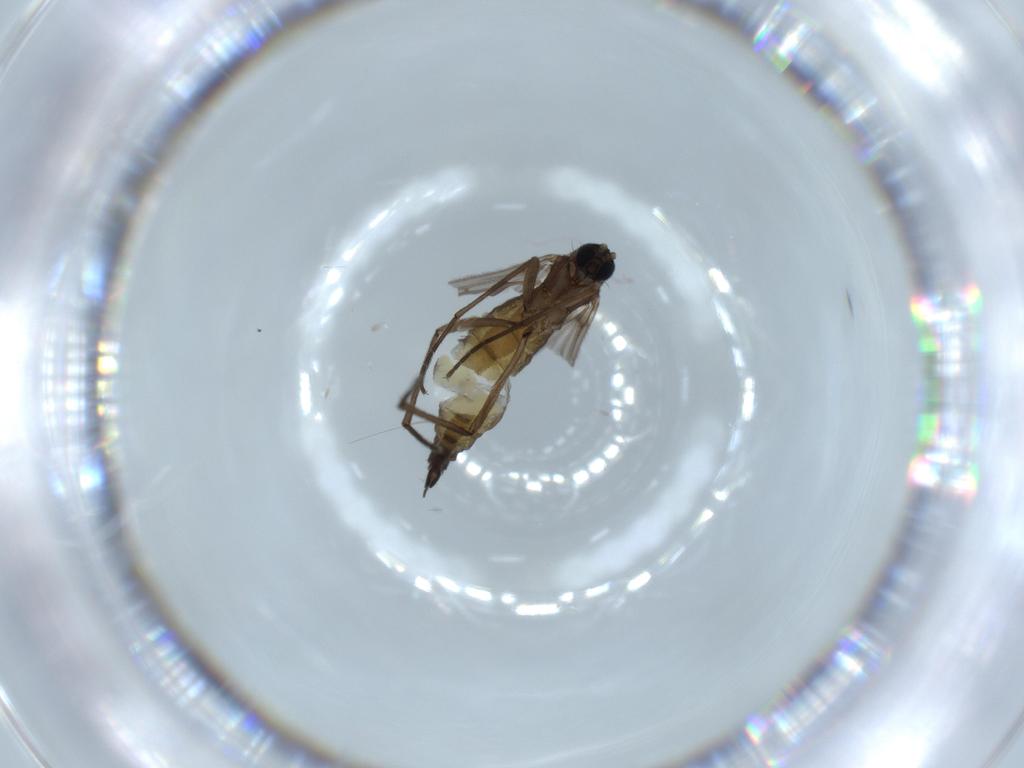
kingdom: Animalia
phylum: Arthropoda
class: Insecta
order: Diptera
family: Sciaridae
